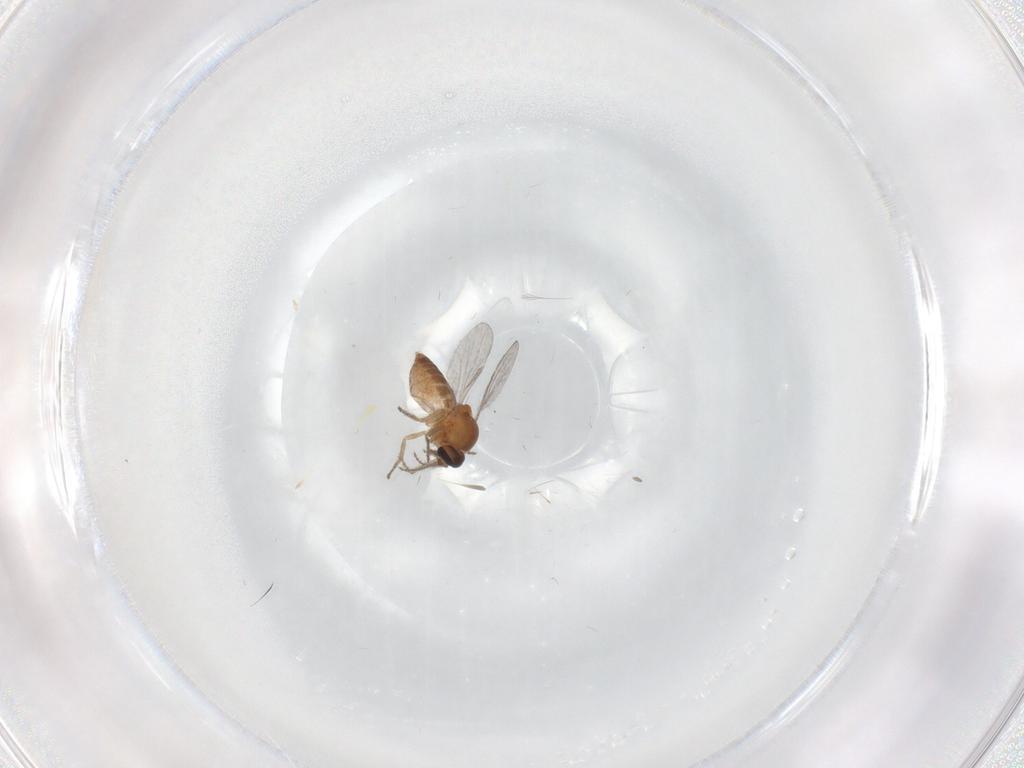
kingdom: Animalia
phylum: Arthropoda
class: Insecta
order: Diptera
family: Ceratopogonidae
